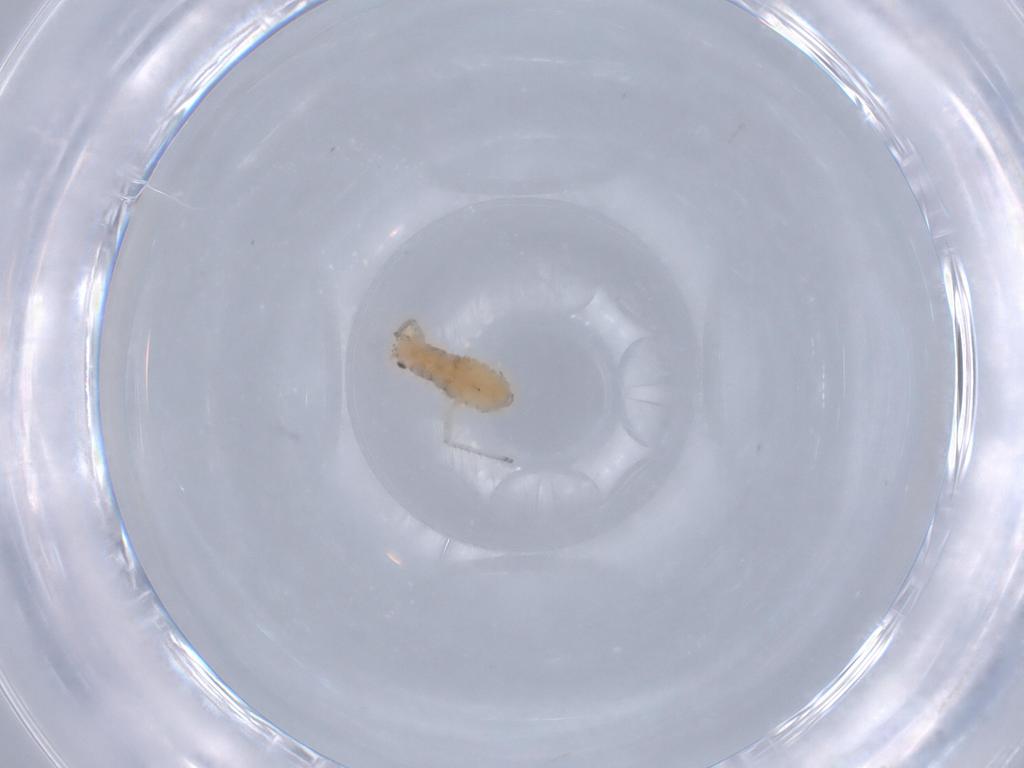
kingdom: Animalia
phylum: Arthropoda
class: Insecta
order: Hemiptera
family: Aphididae
